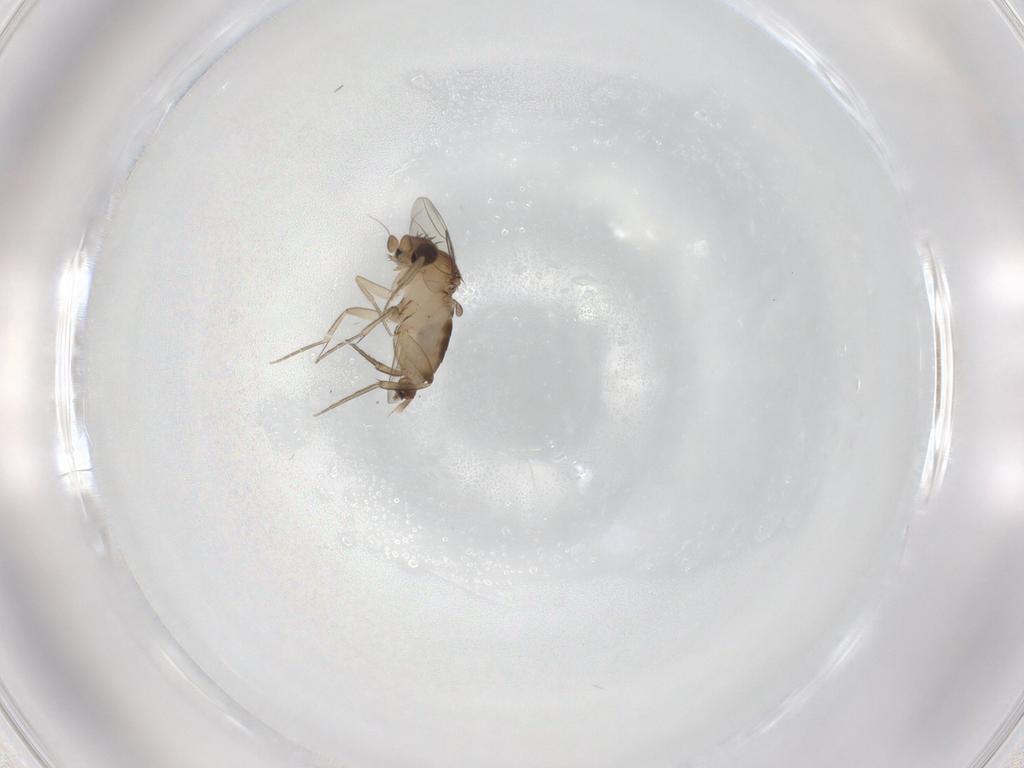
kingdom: Animalia
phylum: Arthropoda
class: Insecta
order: Diptera
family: Phoridae
